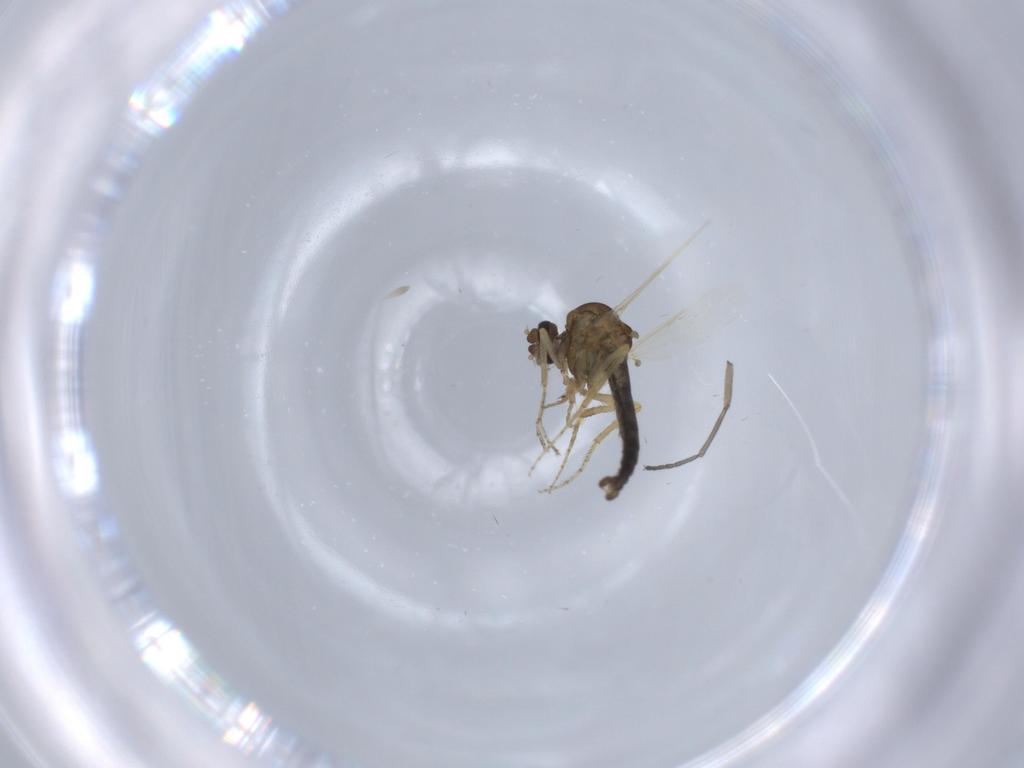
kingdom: Animalia
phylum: Arthropoda
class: Insecta
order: Diptera
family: Ceratopogonidae
